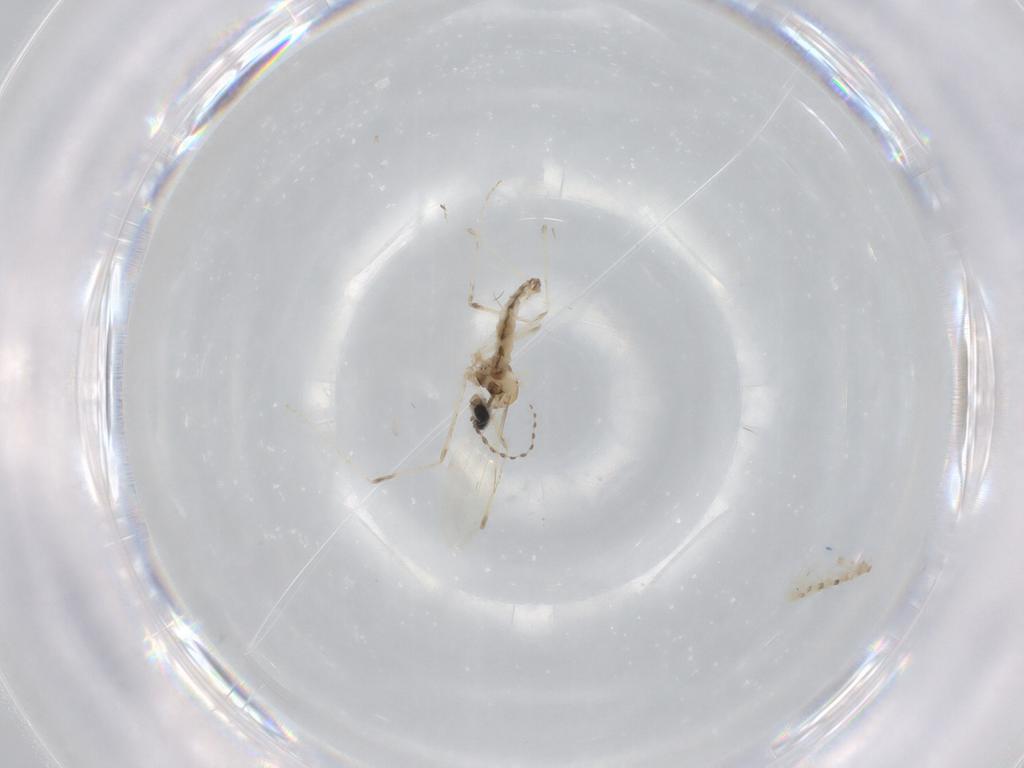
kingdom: Animalia
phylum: Arthropoda
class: Insecta
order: Diptera
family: Cecidomyiidae
